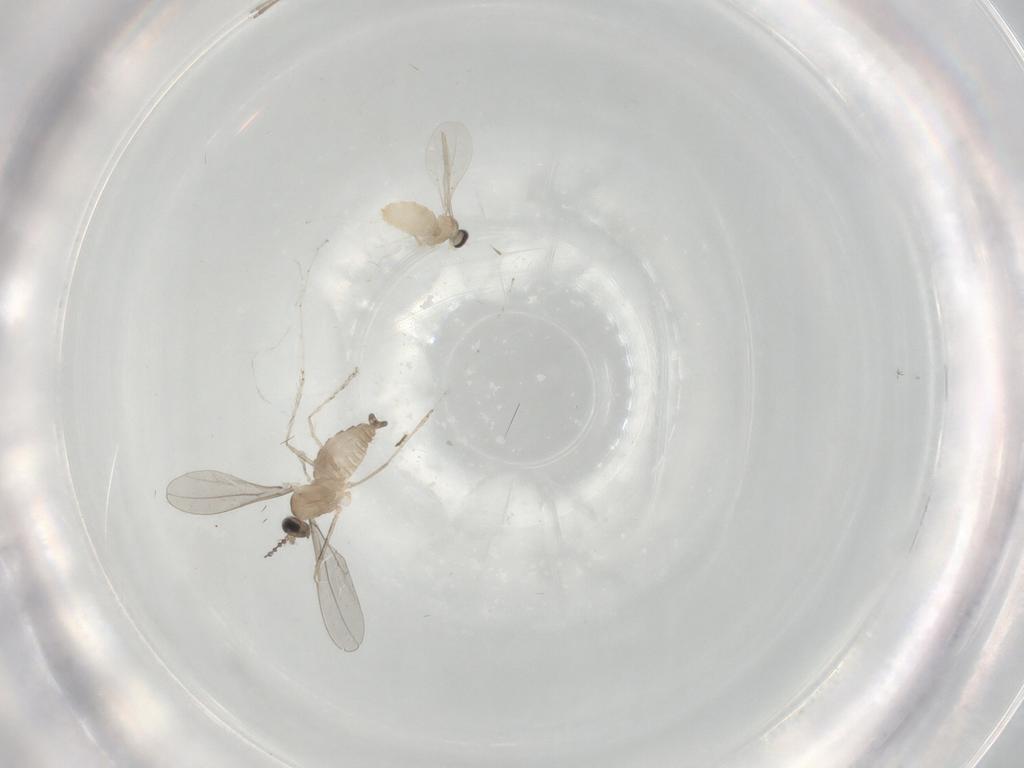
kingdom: Animalia
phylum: Arthropoda
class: Insecta
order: Diptera
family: Cecidomyiidae
